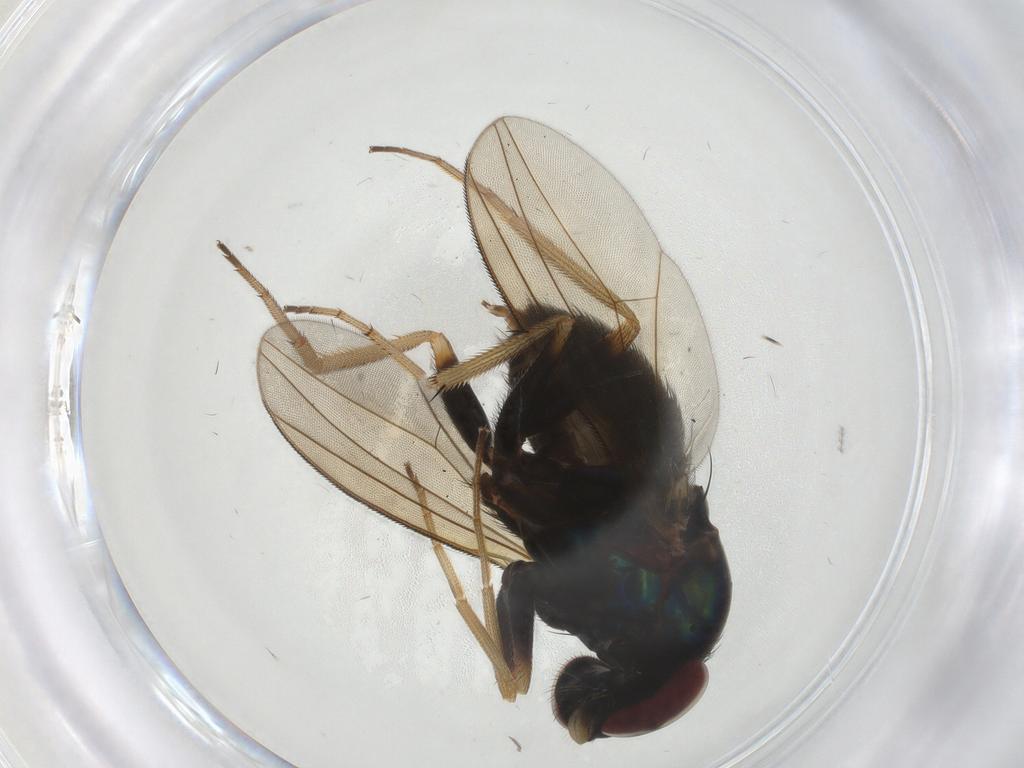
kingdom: Animalia
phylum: Arthropoda
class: Insecta
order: Diptera
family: Dolichopodidae
